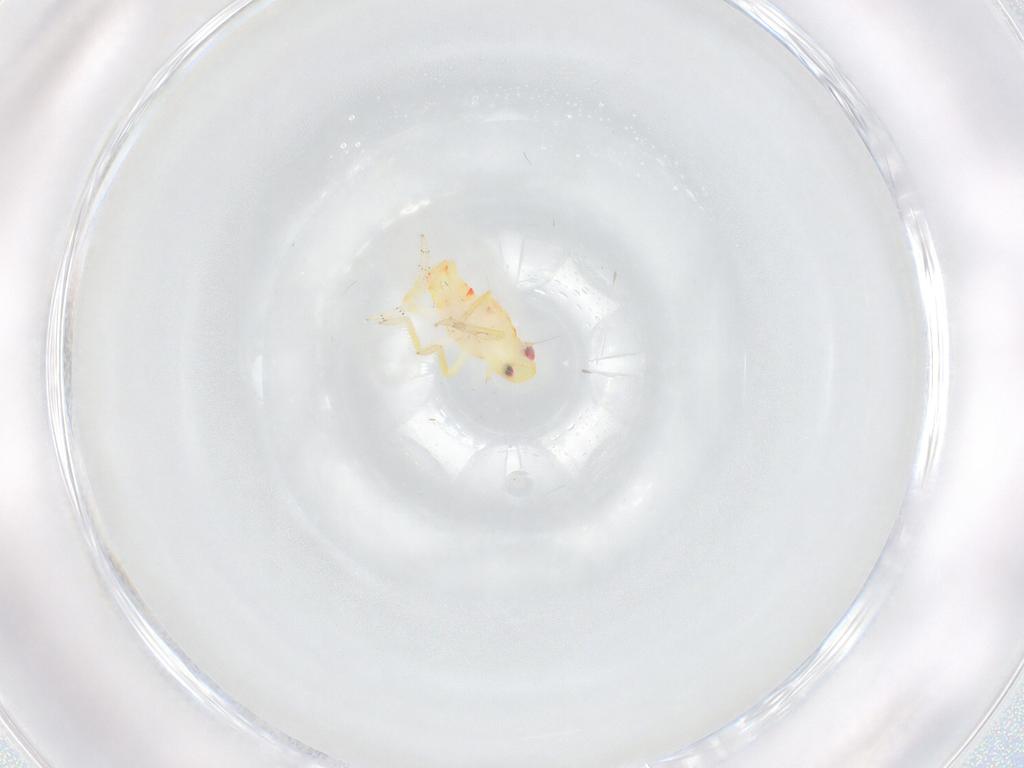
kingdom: Animalia
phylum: Arthropoda
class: Insecta
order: Hemiptera
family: Tropiduchidae
